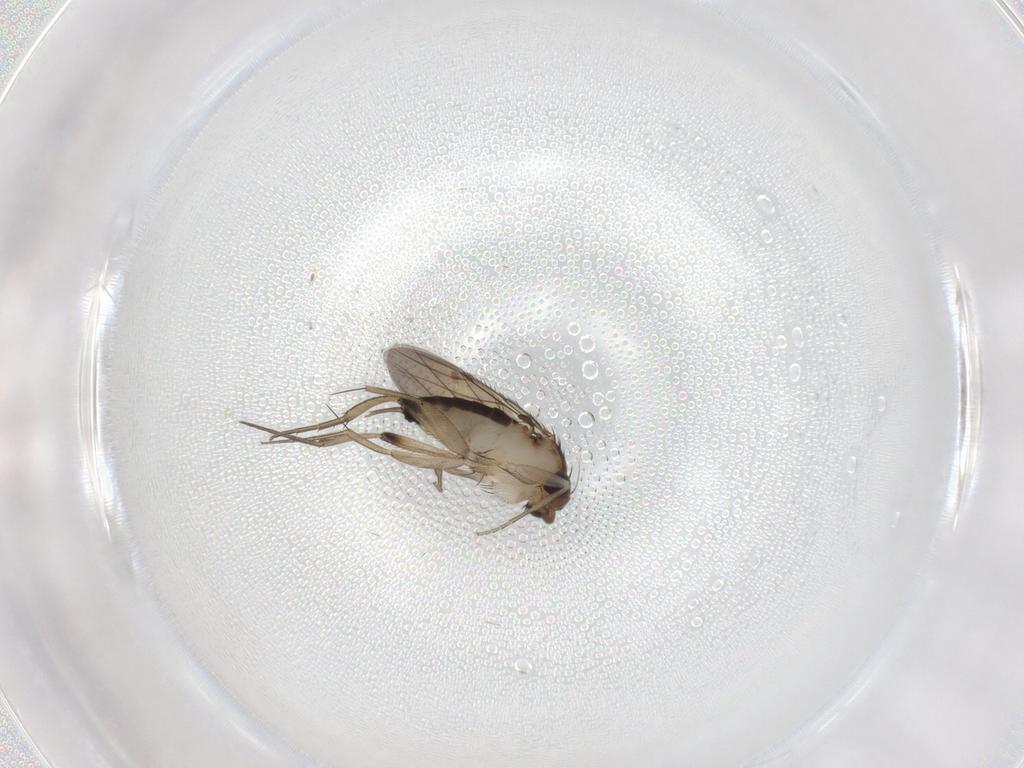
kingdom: Animalia
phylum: Arthropoda
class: Insecta
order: Diptera
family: Phoridae
